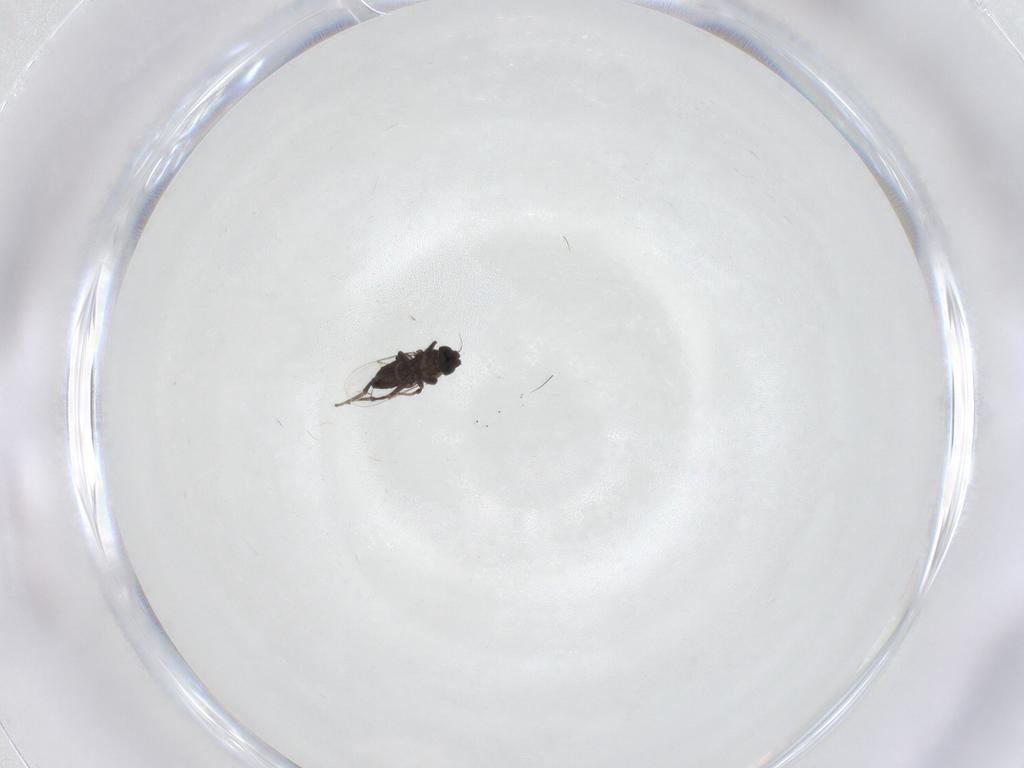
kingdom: Animalia
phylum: Arthropoda
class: Insecta
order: Diptera
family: Phoridae
